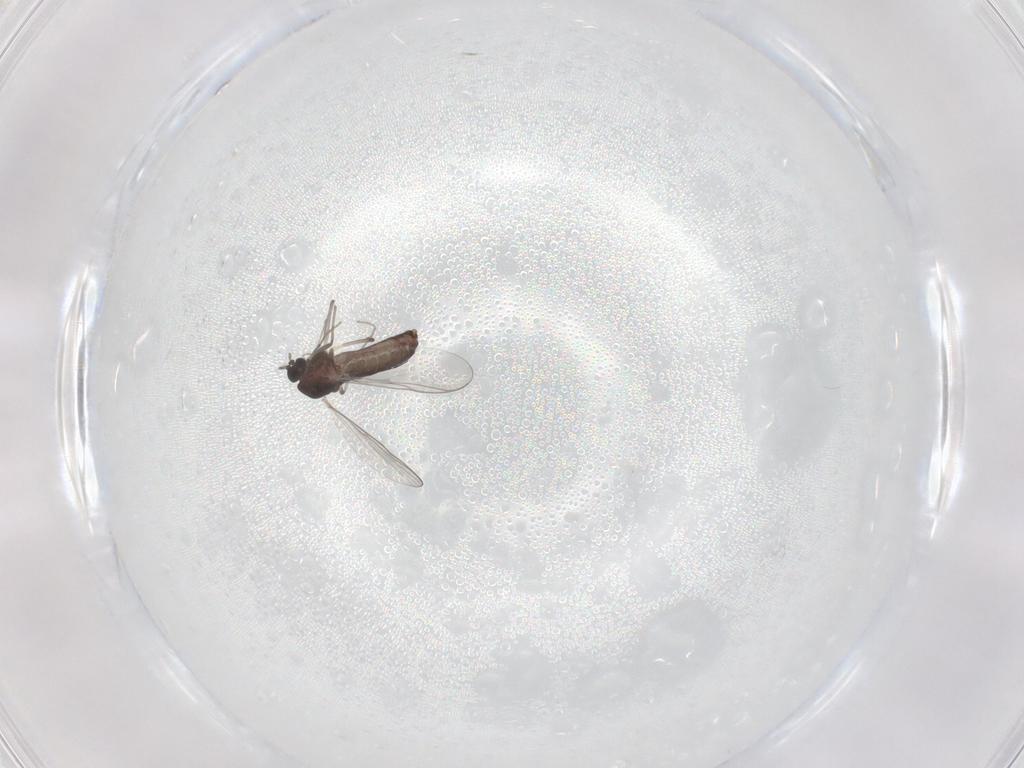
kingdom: Animalia
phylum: Arthropoda
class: Insecta
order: Diptera
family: Chironomidae
